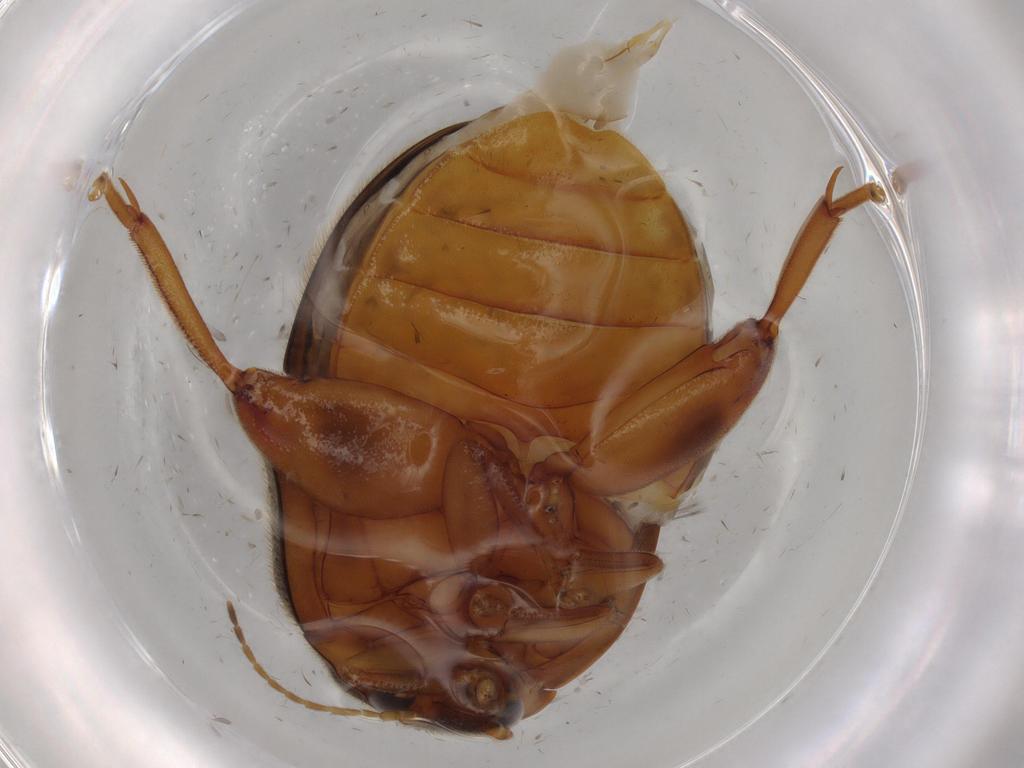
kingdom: Animalia
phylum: Arthropoda
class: Insecta
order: Coleoptera
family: Scirtidae
